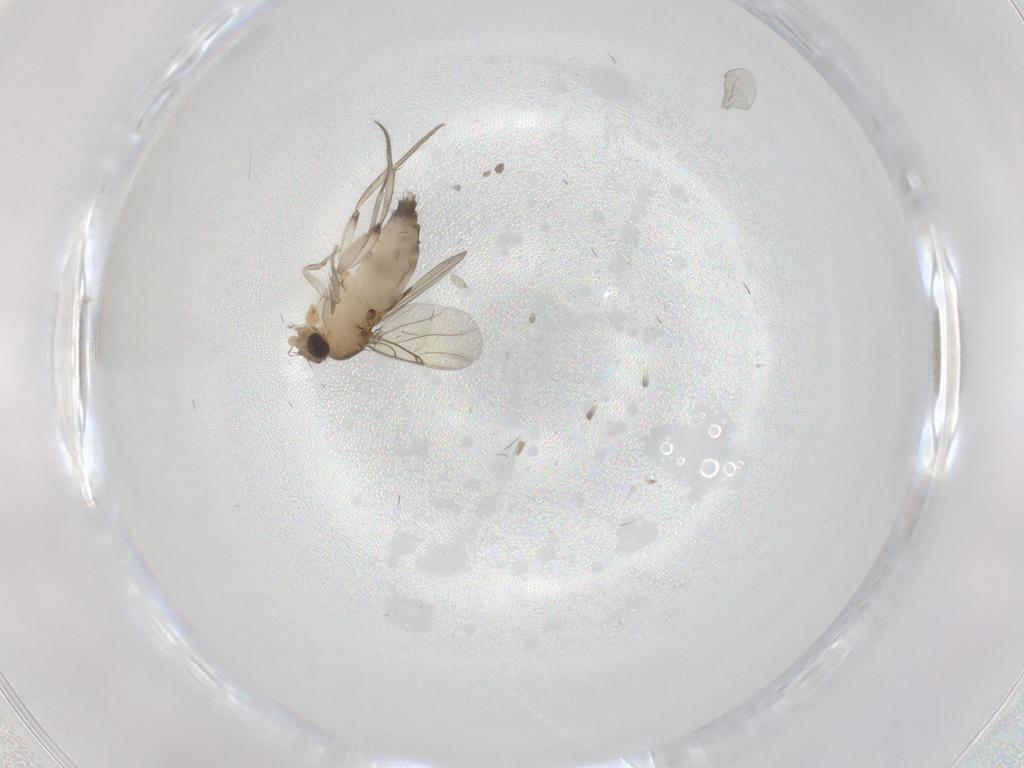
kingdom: Animalia
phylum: Arthropoda
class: Insecta
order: Diptera
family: Phoridae
